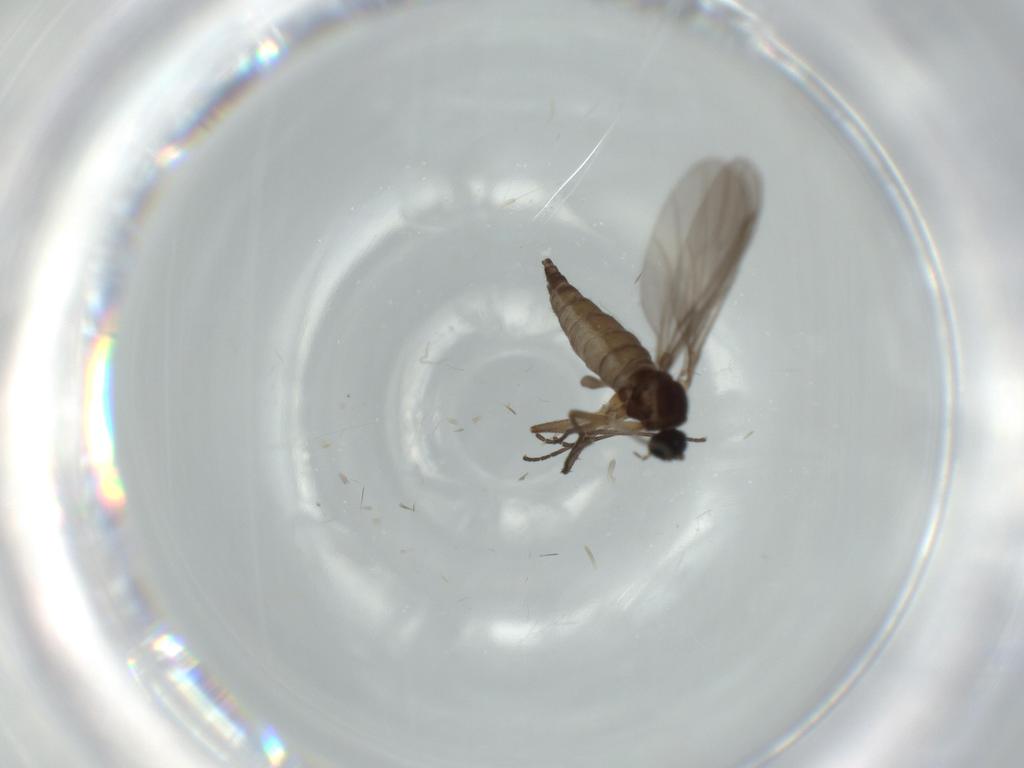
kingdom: Animalia
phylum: Arthropoda
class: Insecta
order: Diptera
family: Sciaridae
